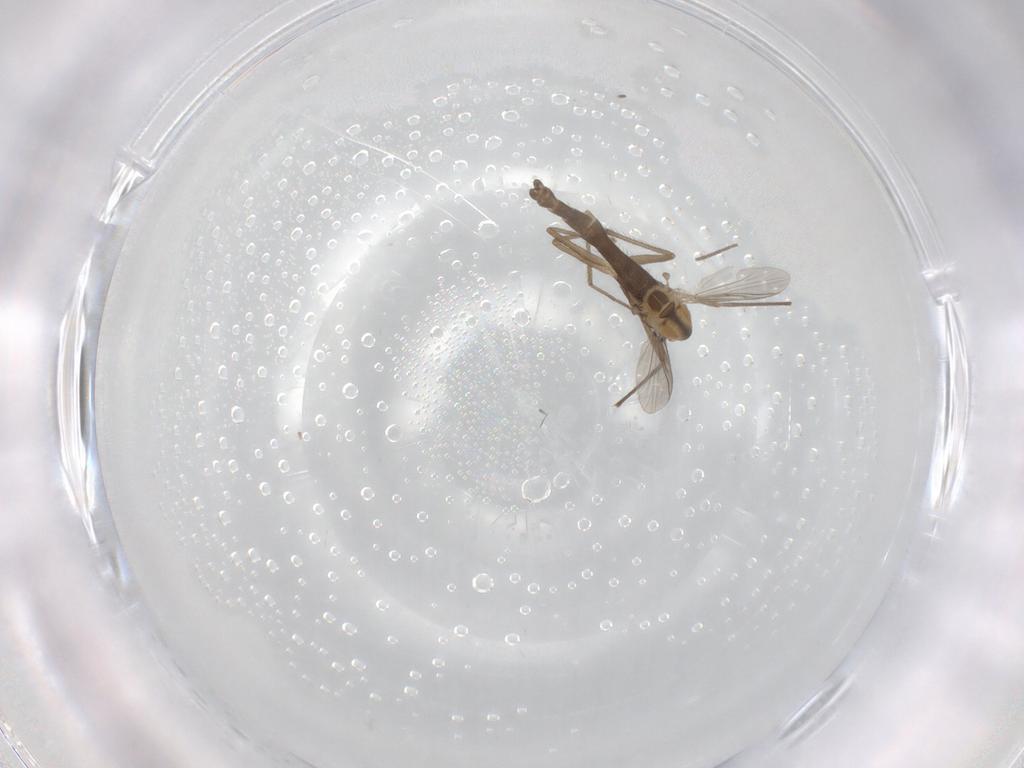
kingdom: Animalia
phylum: Arthropoda
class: Insecta
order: Diptera
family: Chironomidae
